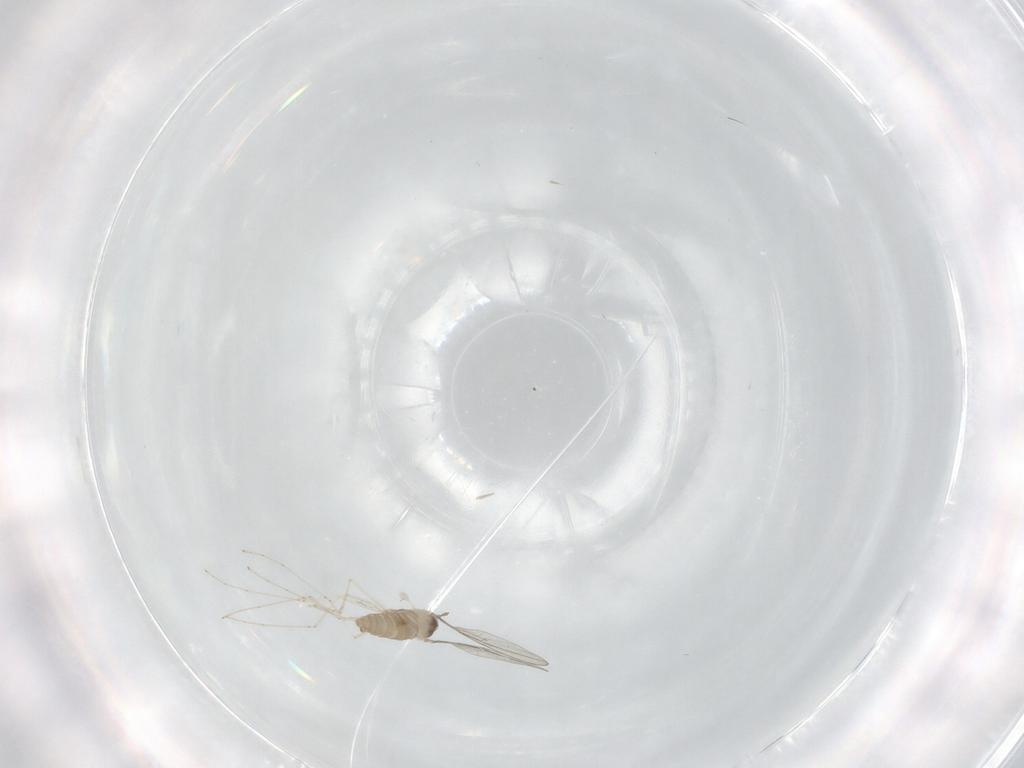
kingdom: Animalia
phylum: Arthropoda
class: Insecta
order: Diptera
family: Cecidomyiidae
